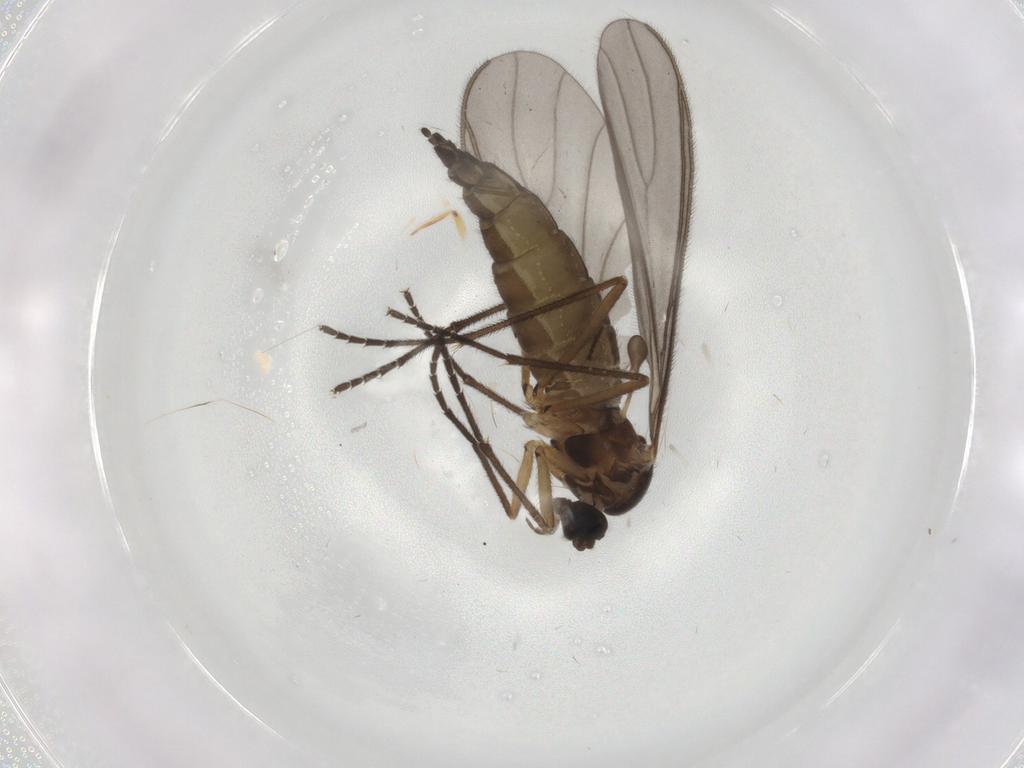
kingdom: Animalia
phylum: Arthropoda
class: Insecta
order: Diptera
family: Sciaridae
